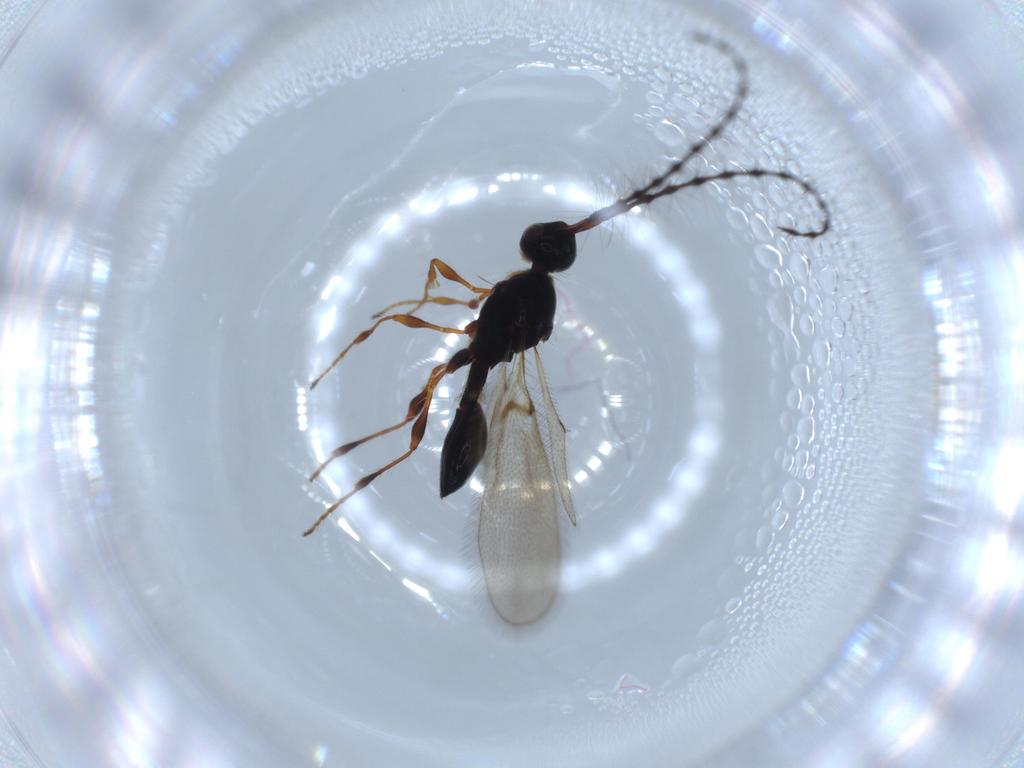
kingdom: Animalia
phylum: Arthropoda
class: Insecta
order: Hymenoptera
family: Diapriidae
